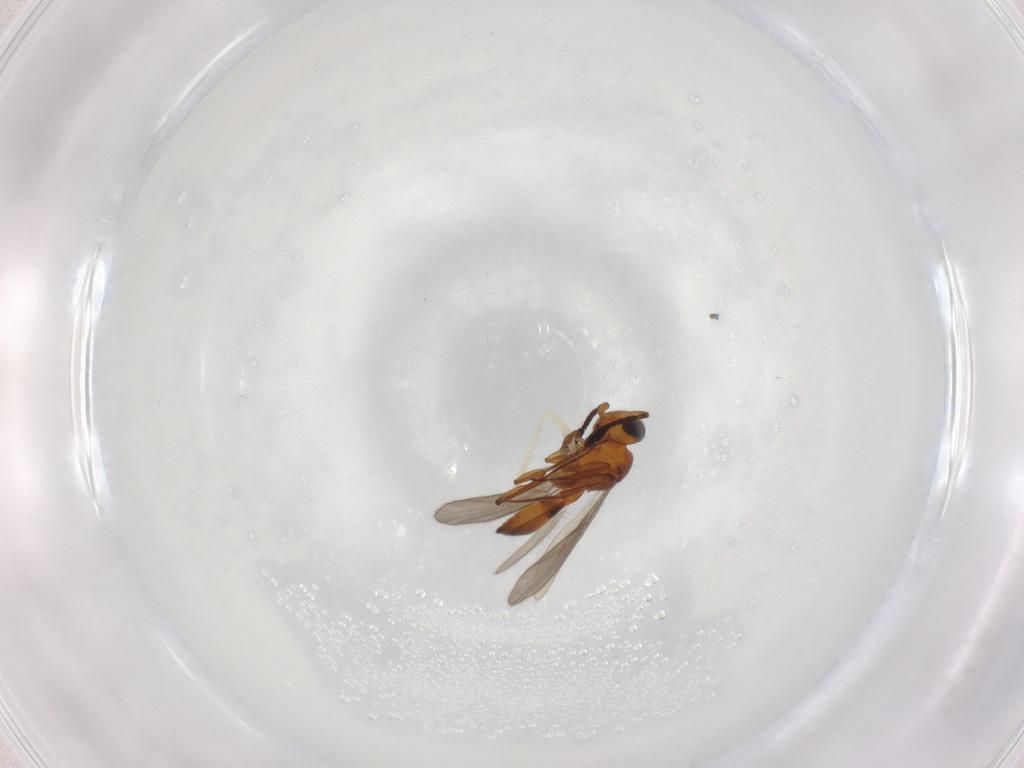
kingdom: Animalia
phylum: Arthropoda
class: Insecta
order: Hymenoptera
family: Scelionidae
